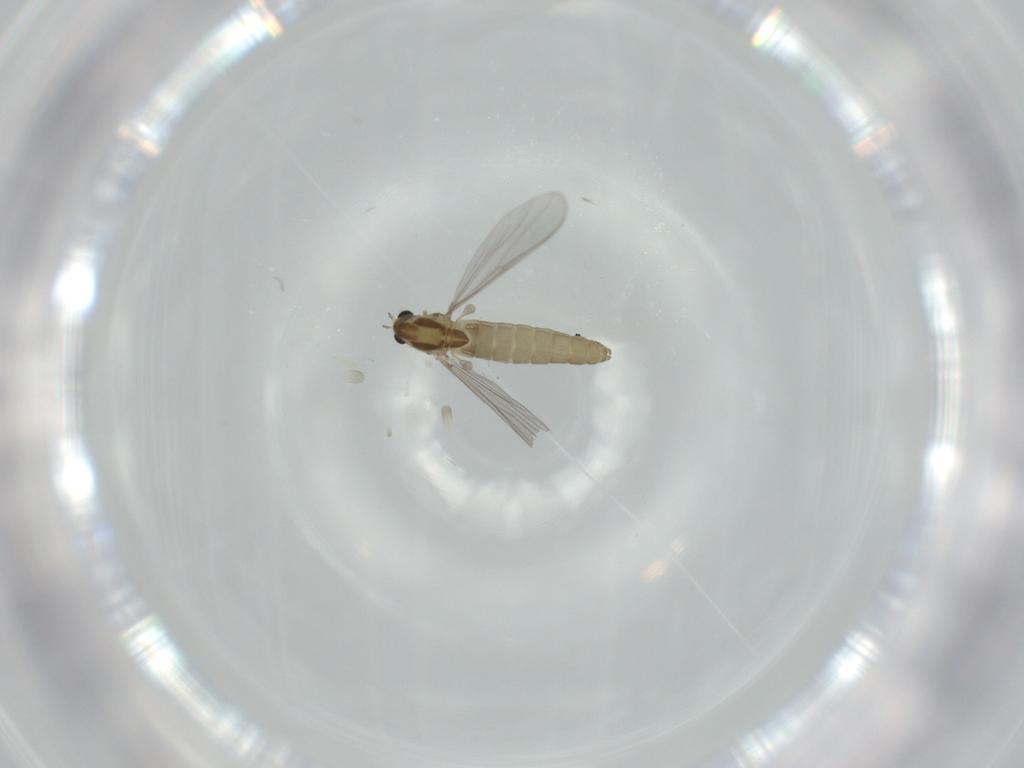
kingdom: Animalia
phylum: Arthropoda
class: Insecta
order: Diptera
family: Chironomidae
